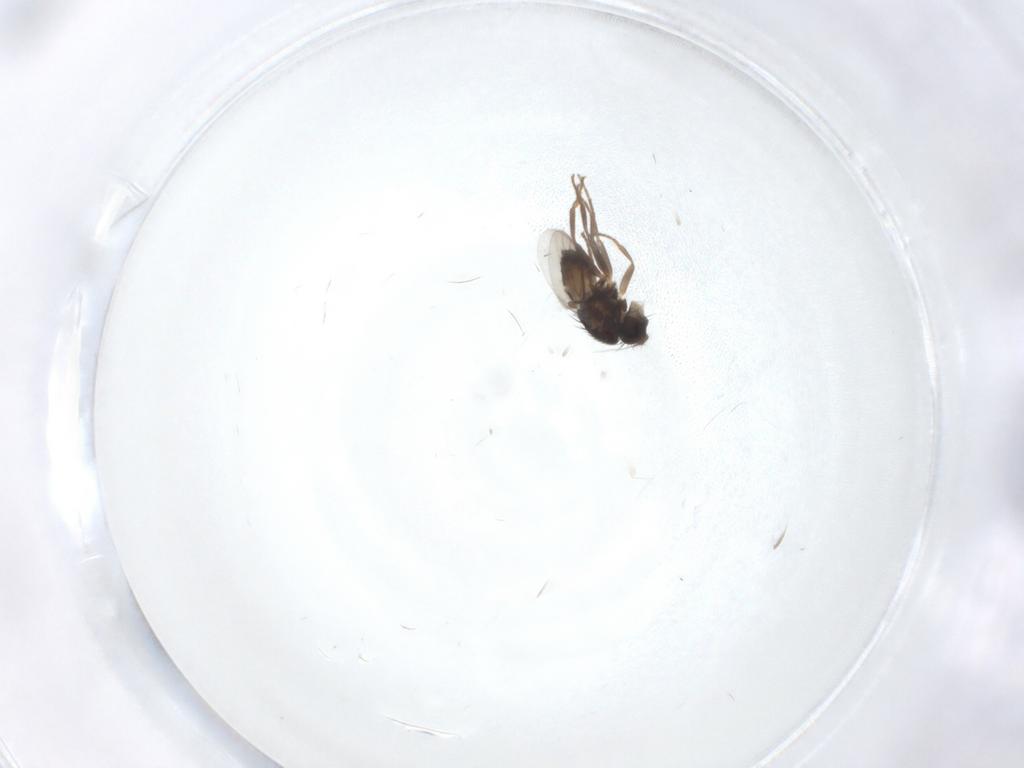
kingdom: Animalia
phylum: Arthropoda
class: Insecta
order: Diptera
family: Sphaeroceridae
